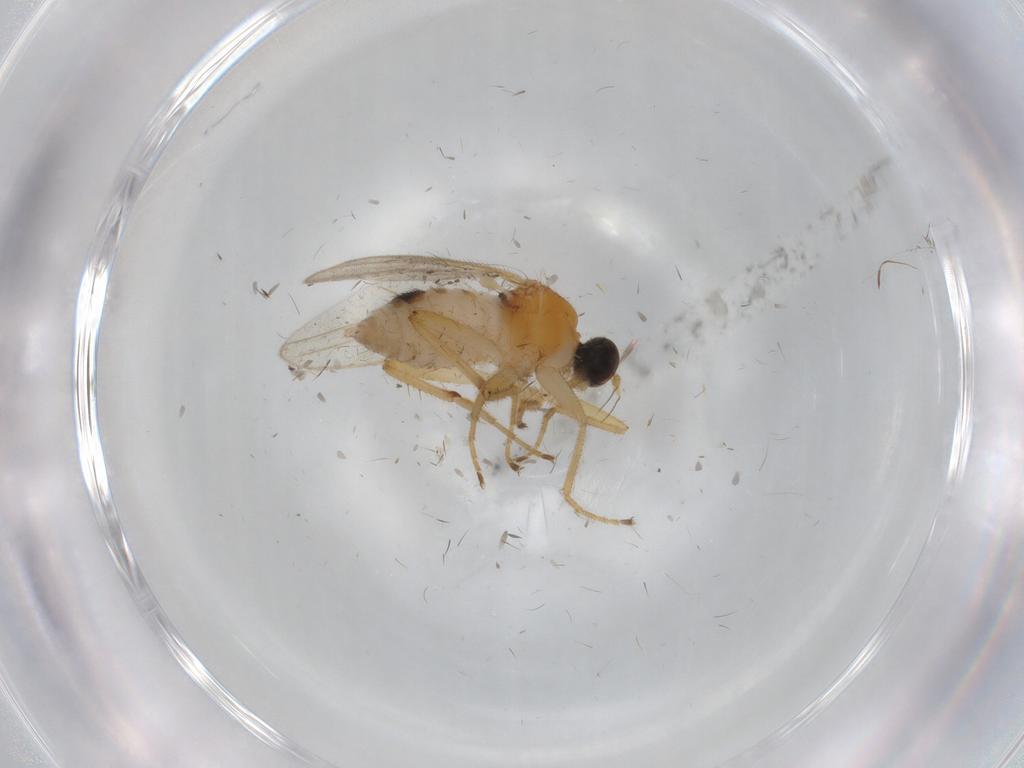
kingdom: Animalia
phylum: Arthropoda
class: Insecta
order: Diptera
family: Hybotidae
